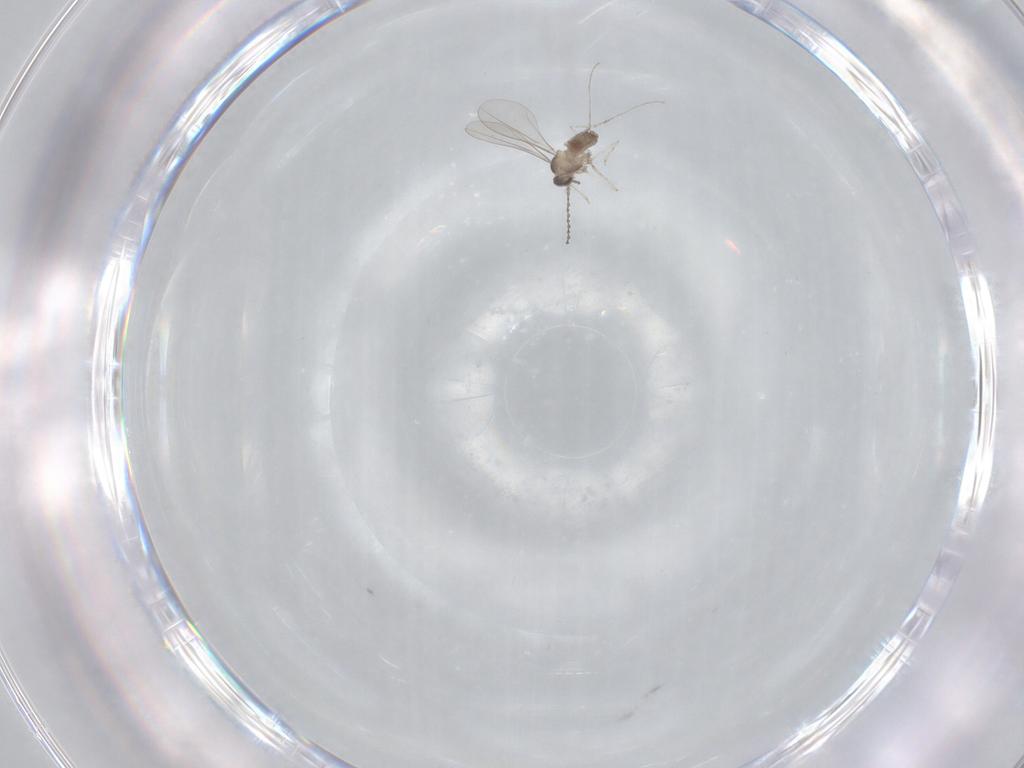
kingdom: Animalia
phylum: Arthropoda
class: Insecta
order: Diptera
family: Cecidomyiidae
